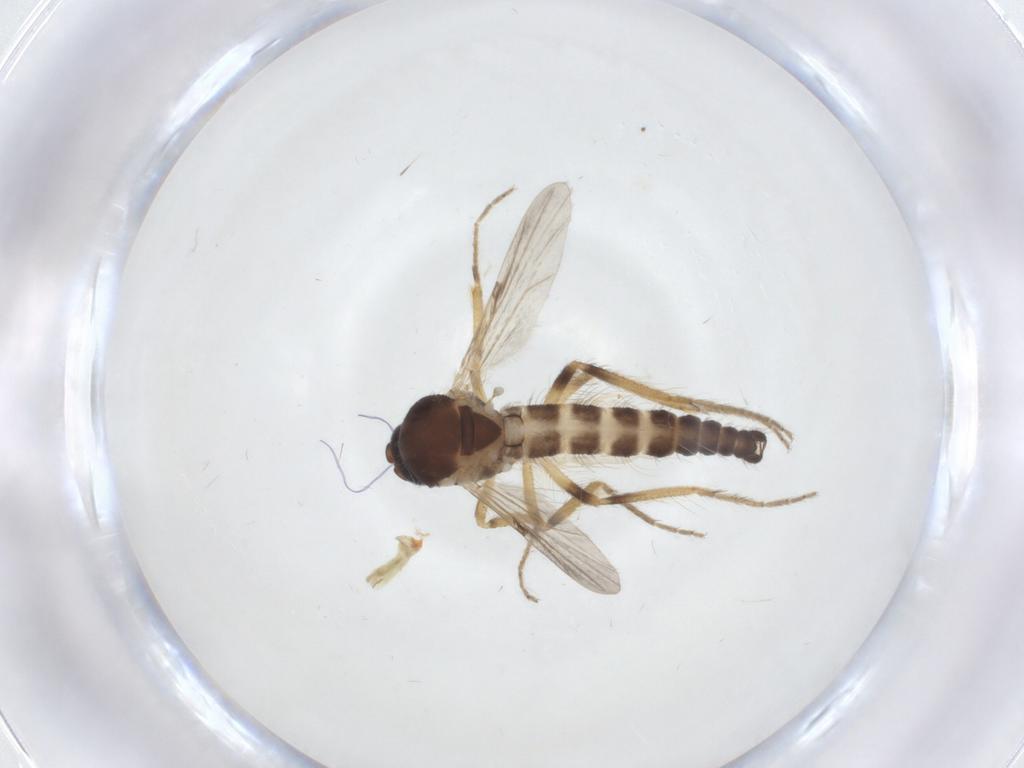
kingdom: Animalia
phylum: Arthropoda
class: Insecta
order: Diptera
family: Ceratopogonidae
